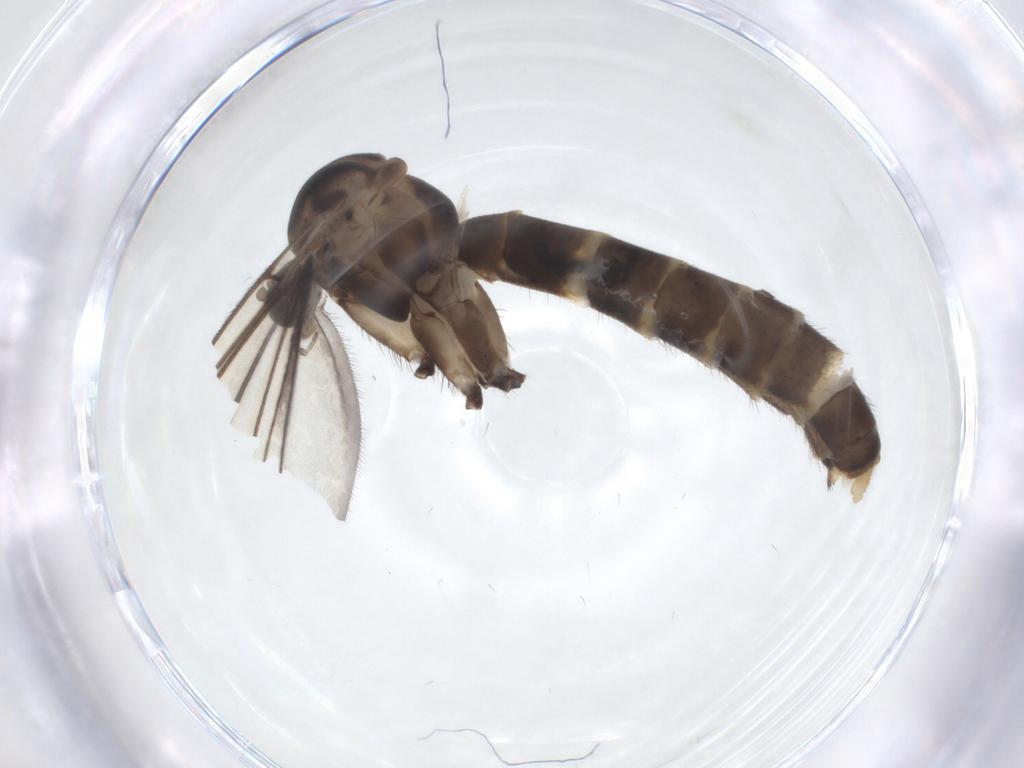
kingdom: Animalia
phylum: Arthropoda
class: Insecta
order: Diptera
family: Mycetophilidae
